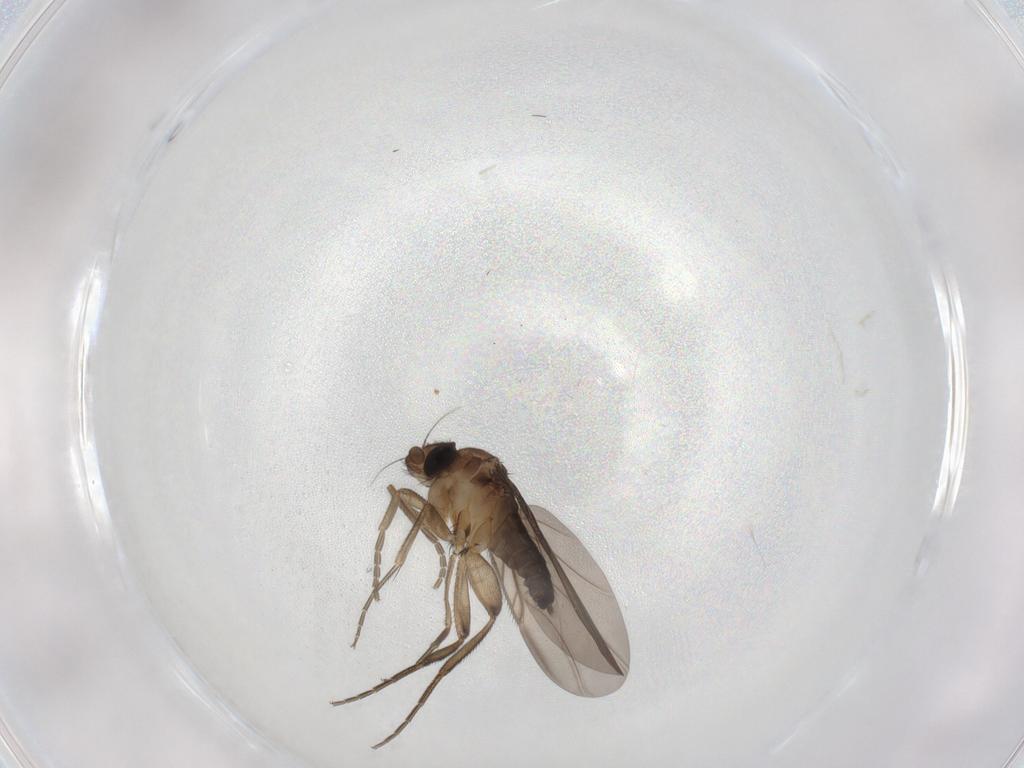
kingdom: Animalia
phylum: Arthropoda
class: Insecta
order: Diptera
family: Phoridae
